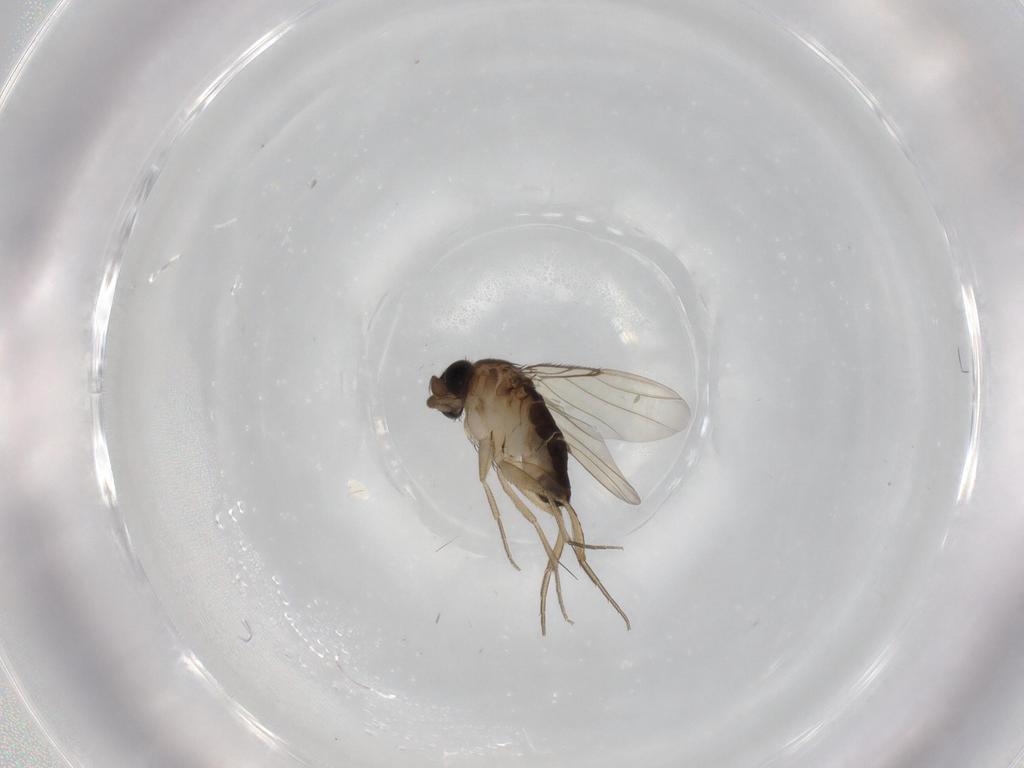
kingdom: Animalia
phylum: Arthropoda
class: Insecta
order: Diptera
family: Phoridae
